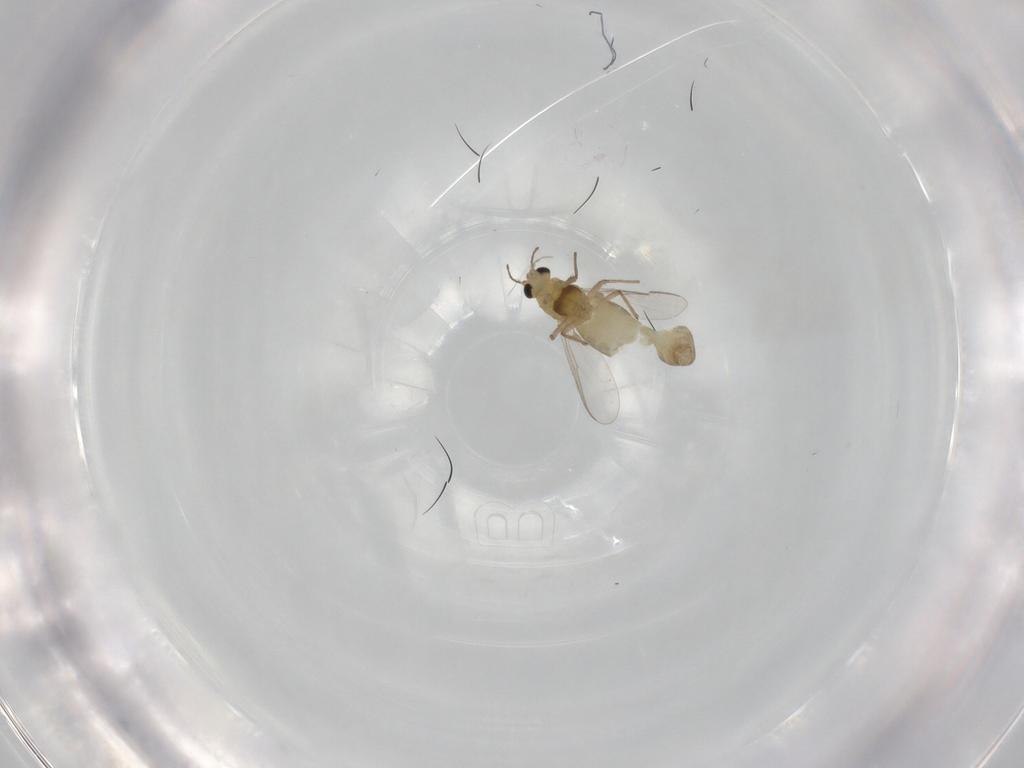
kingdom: Animalia
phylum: Arthropoda
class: Insecta
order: Diptera
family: Chironomidae
